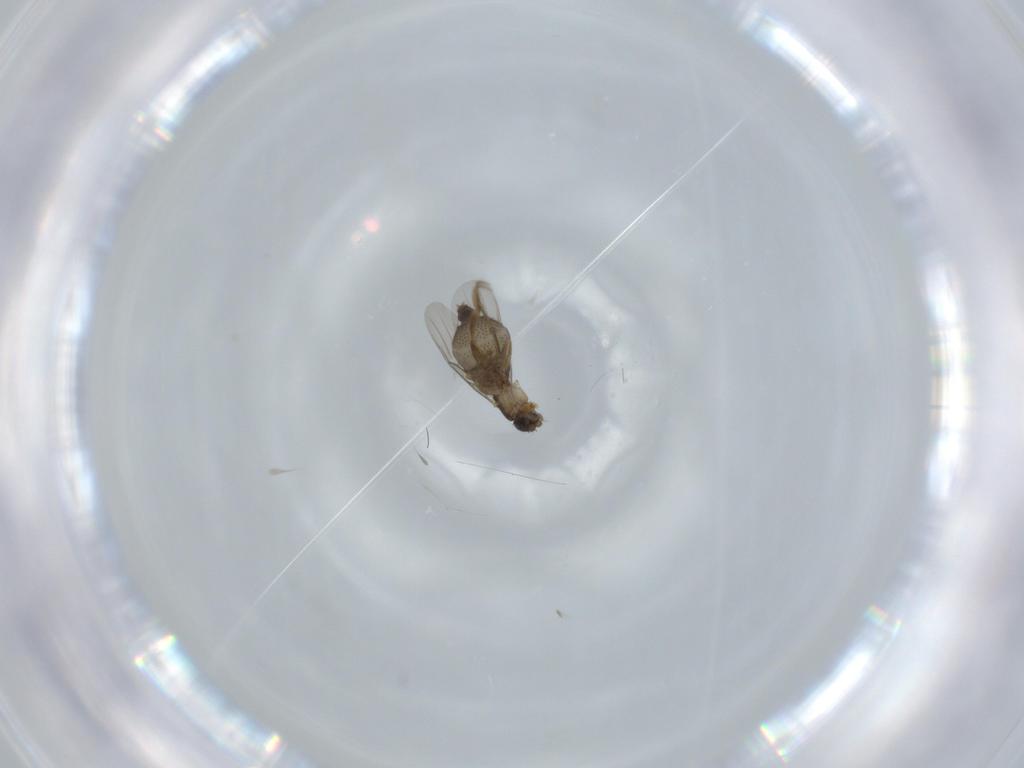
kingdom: Animalia
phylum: Arthropoda
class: Insecta
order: Diptera
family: Phoridae
